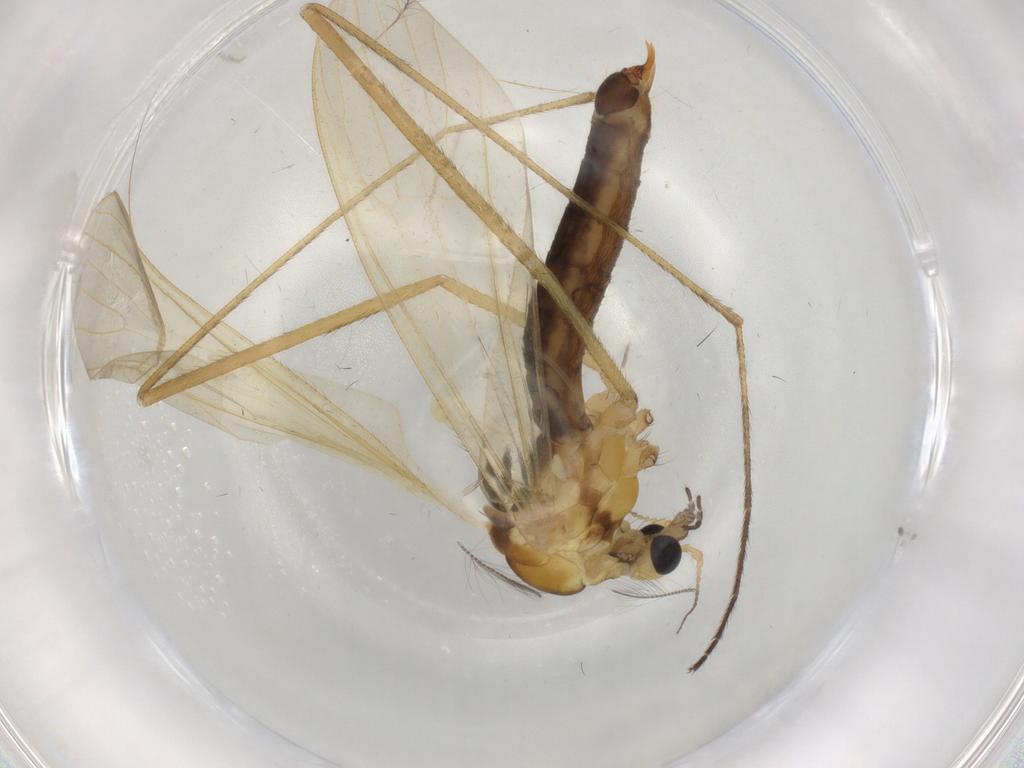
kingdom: Animalia
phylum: Arthropoda
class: Insecta
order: Diptera
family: Limoniidae
